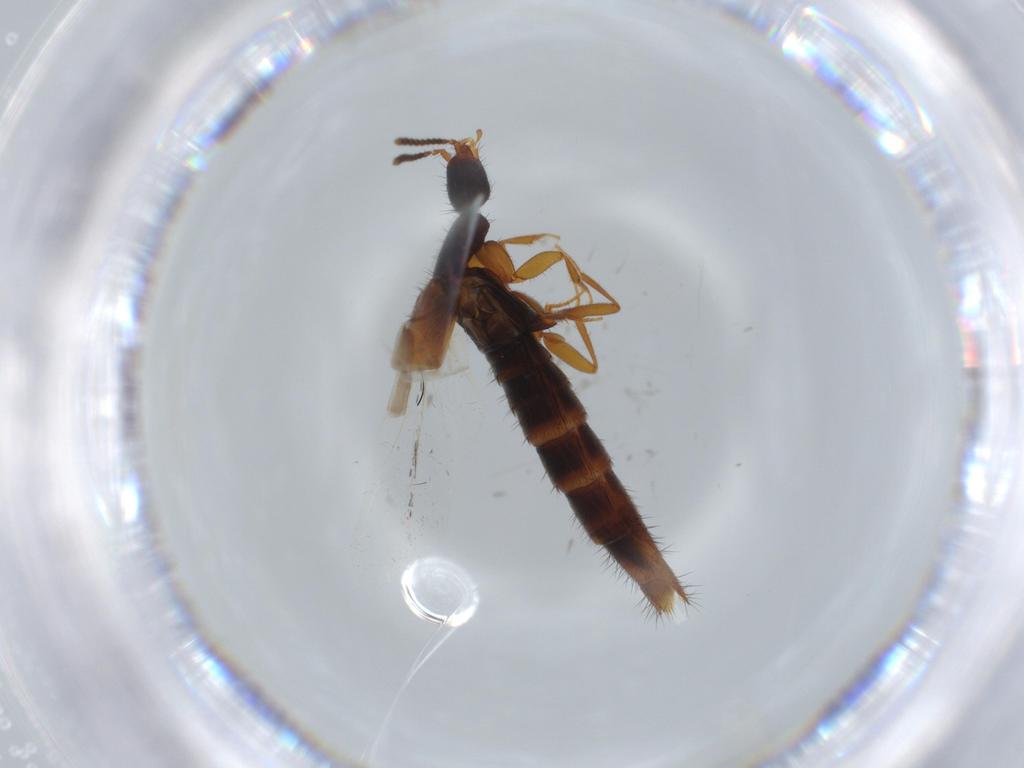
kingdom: Animalia
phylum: Arthropoda
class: Insecta
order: Coleoptera
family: Staphylinidae
